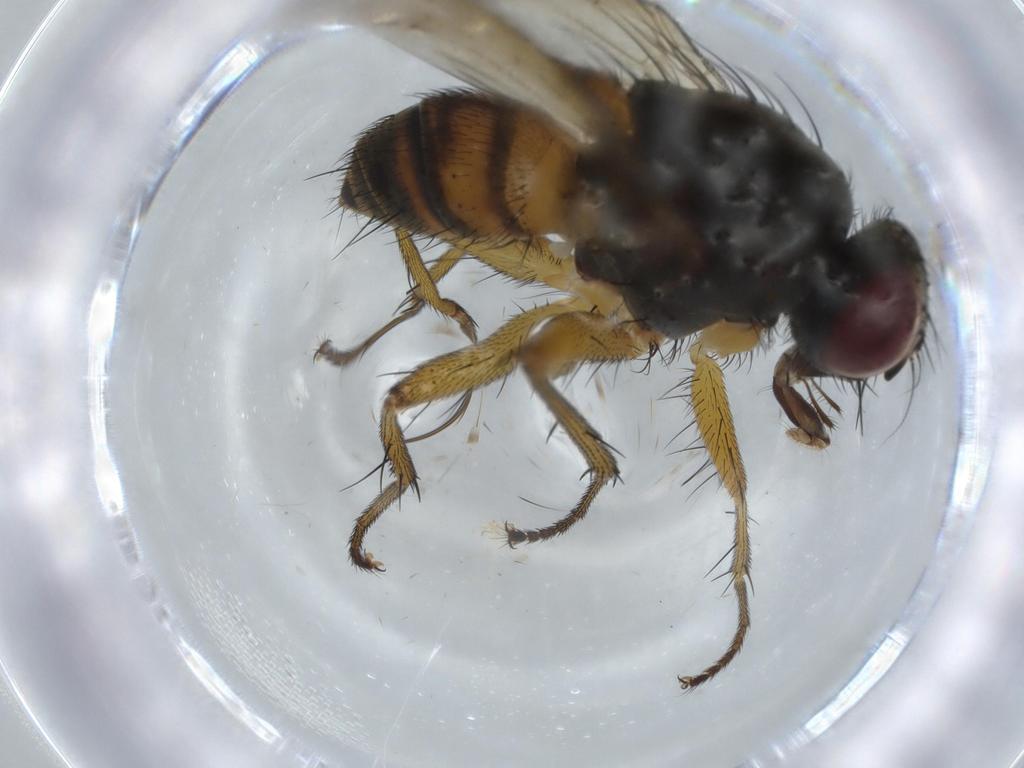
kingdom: Animalia
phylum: Arthropoda
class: Insecta
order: Diptera
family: Muscidae
